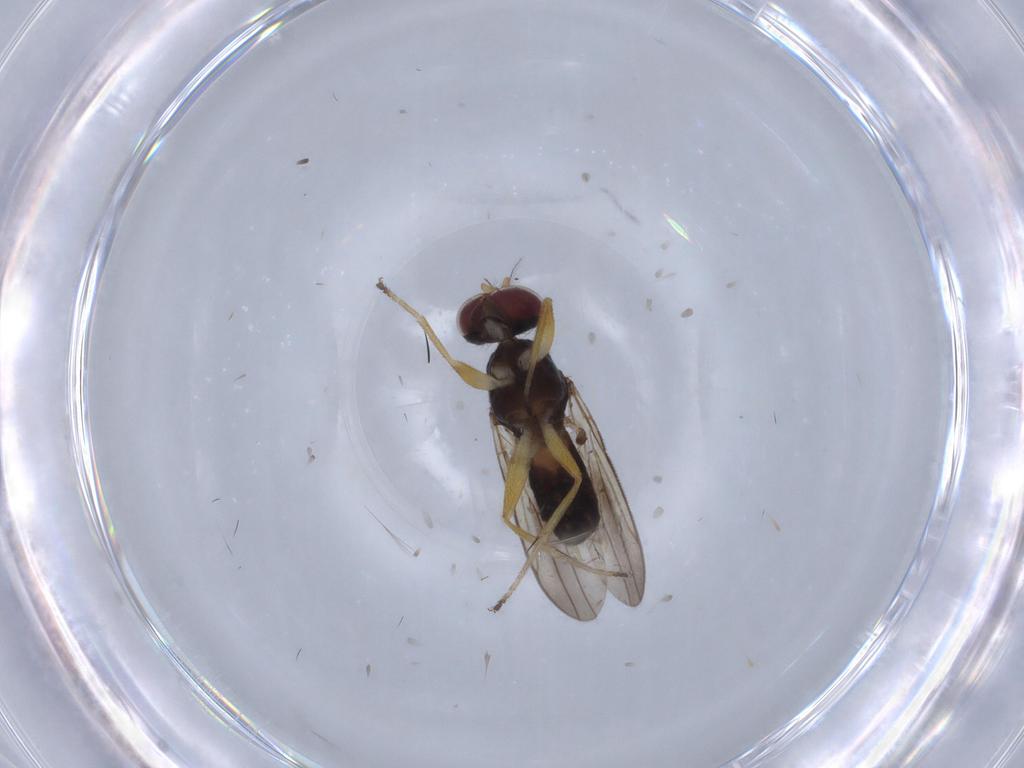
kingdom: Animalia
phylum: Arthropoda
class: Insecta
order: Diptera
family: Periscelididae
